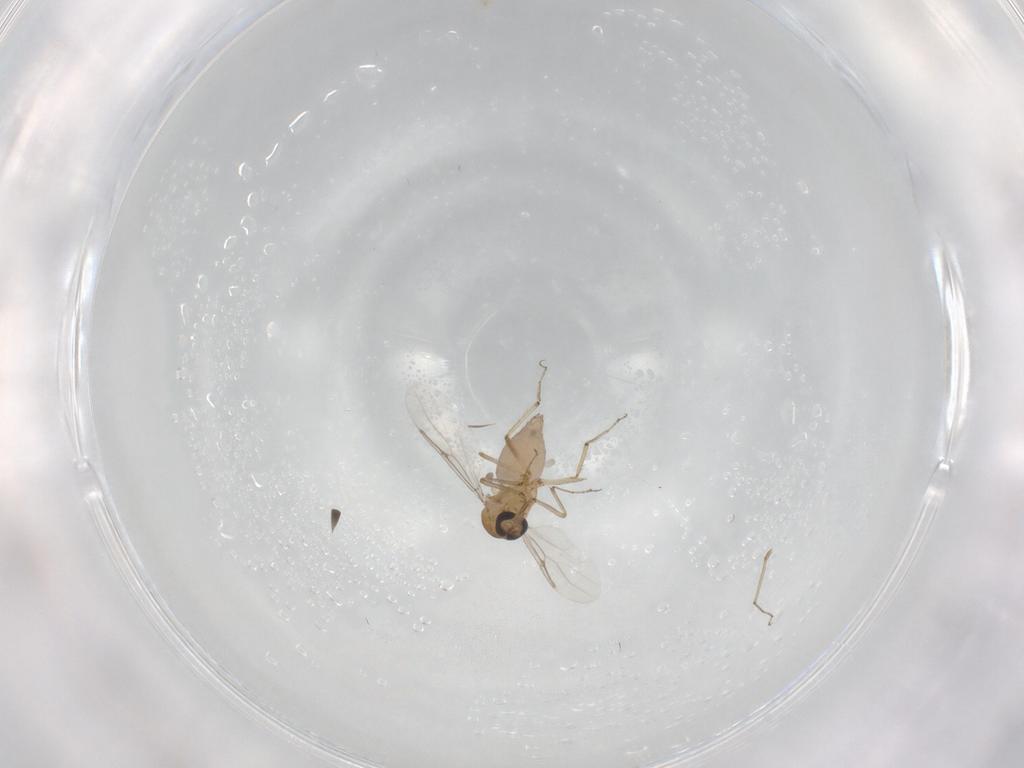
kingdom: Animalia
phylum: Arthropoda
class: Insecta
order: Diptera
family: Ceratopogonidae
